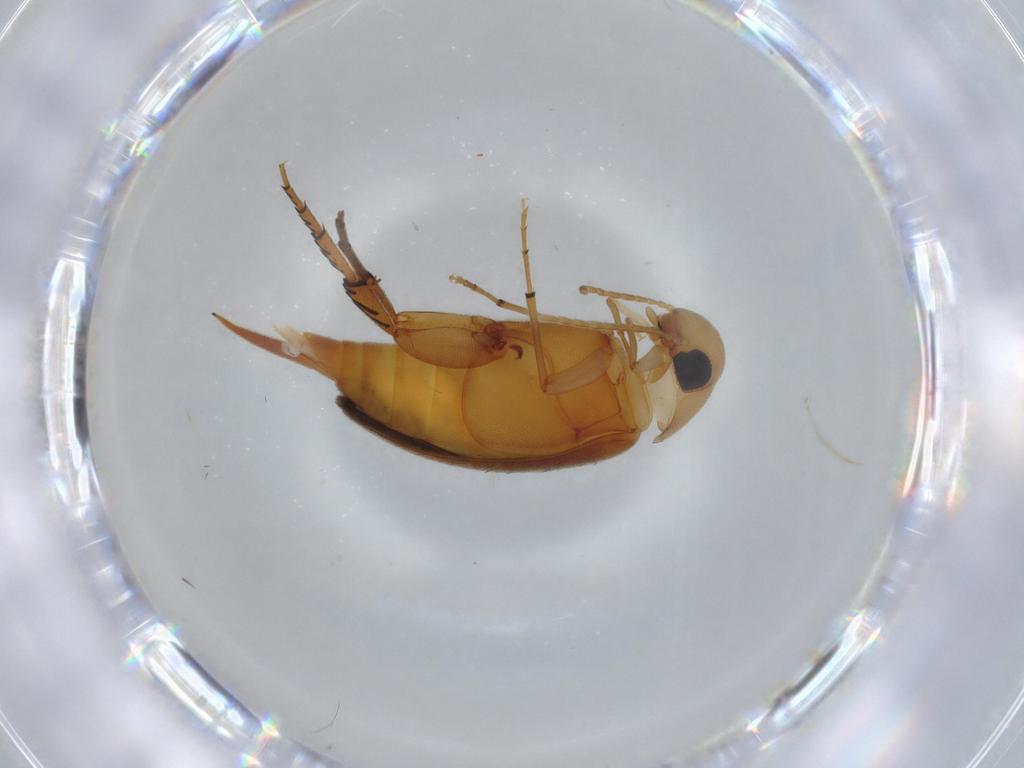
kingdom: Animalia
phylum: Arthropoda
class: Insecta
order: Coleoptera
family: Mordellidae
